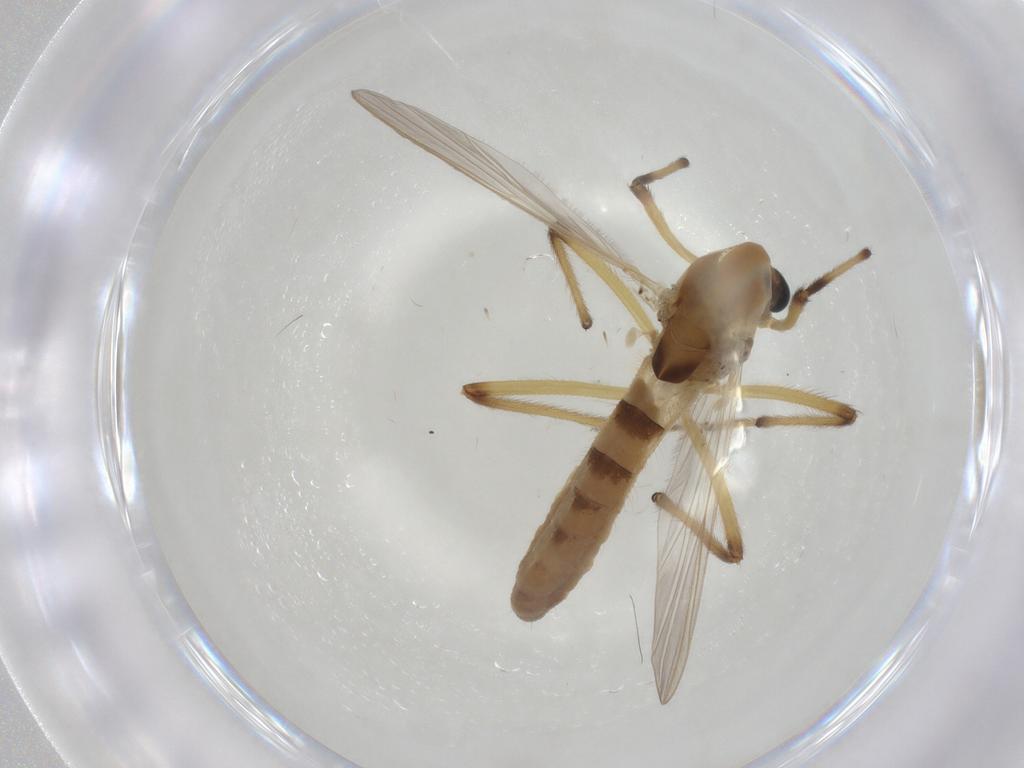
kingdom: Animalia
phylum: Arthropoda
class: Insecta
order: Diptera
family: Chironomidae
